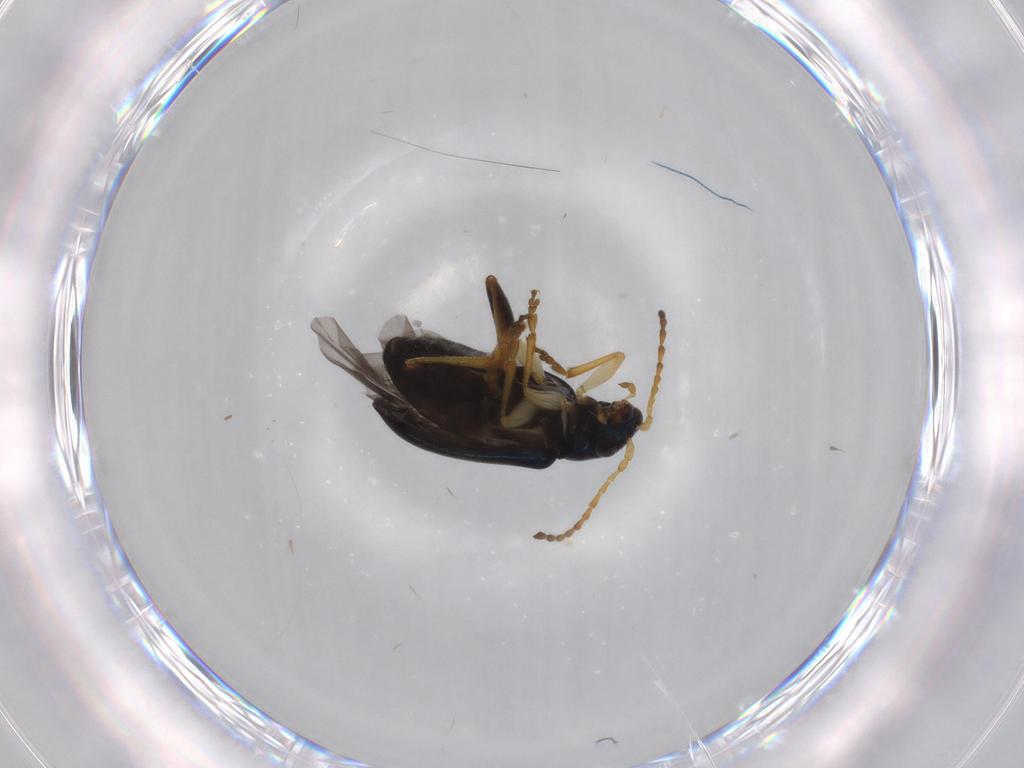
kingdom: Animalia
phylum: Arthropoda
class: Insecta
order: Coleoptera
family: Chrysomelidae
